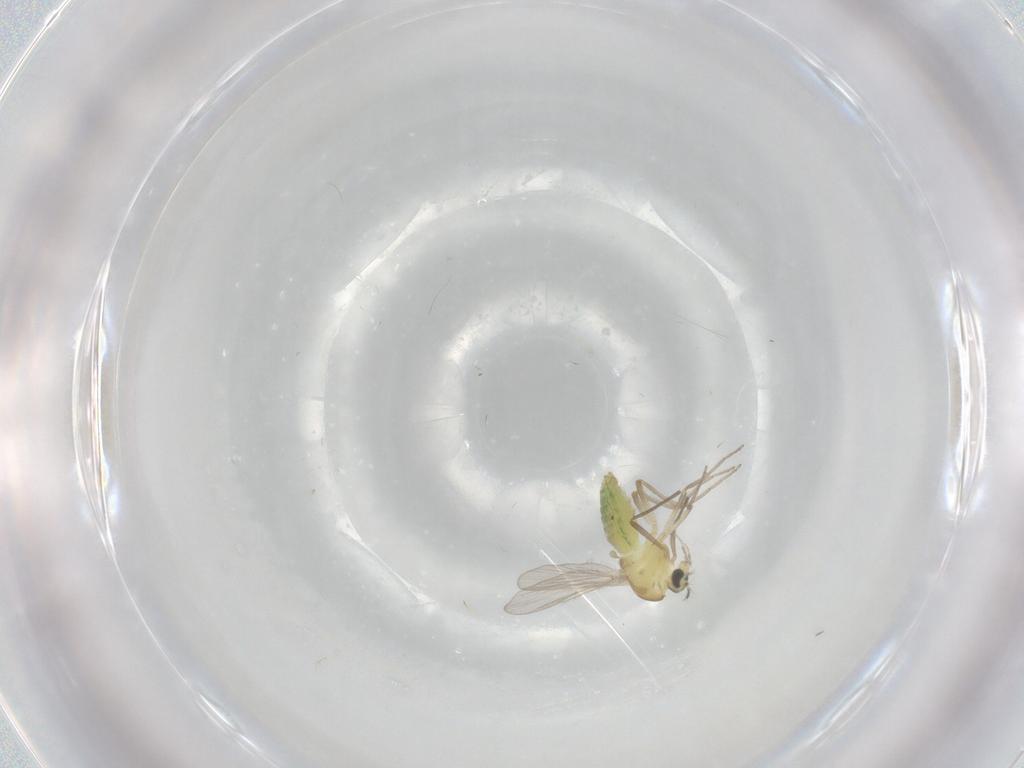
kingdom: Animalia
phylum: Arthropoda
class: Insecta
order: Diptera
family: Chironomidae
